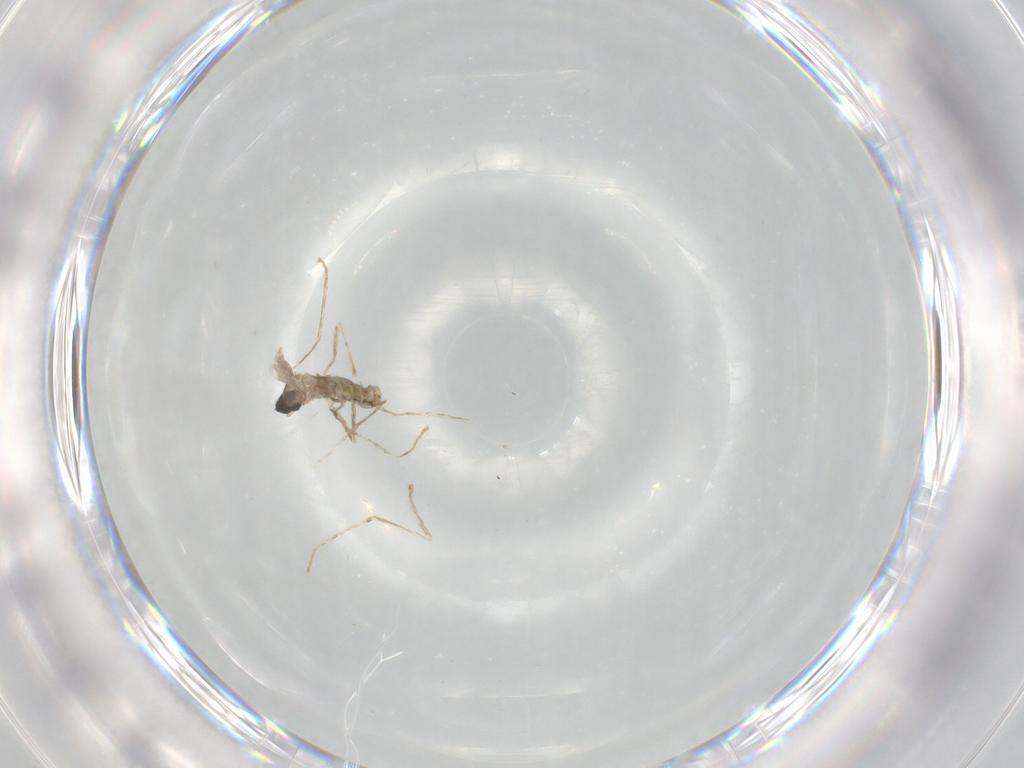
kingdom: Animalia
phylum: Arthropoda
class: Insecta
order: Diptera
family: Cecidomyiidae
